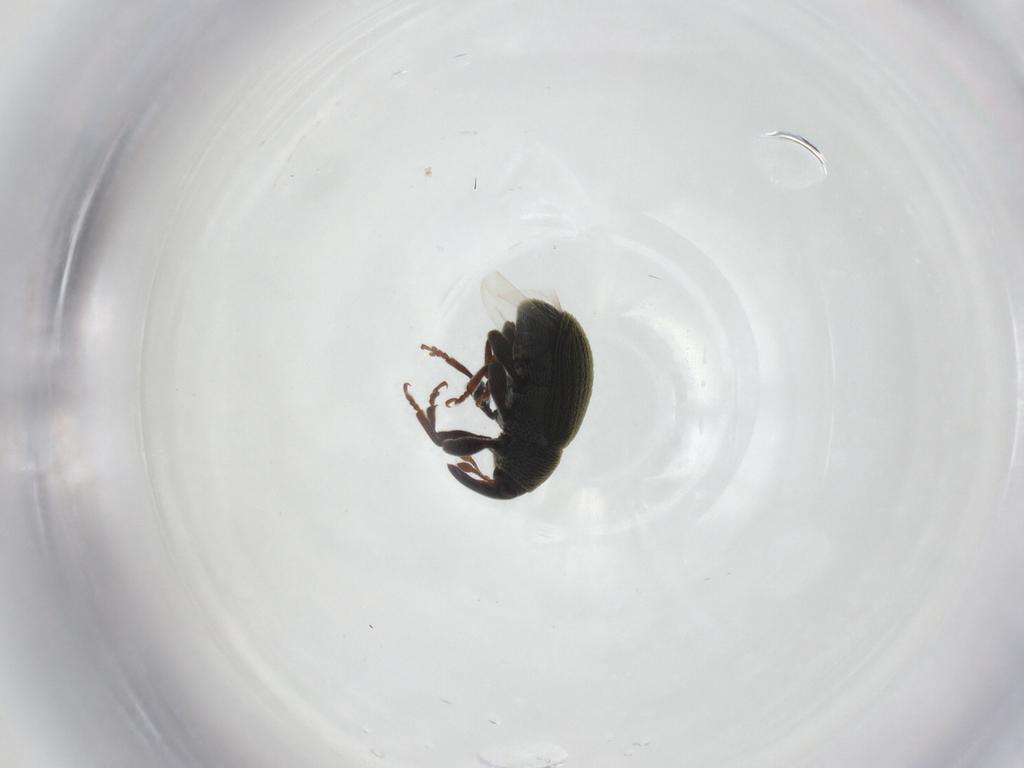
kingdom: Animalia
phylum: Arthropoda
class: Insecta
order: Coleoptera
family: Curculionidae
